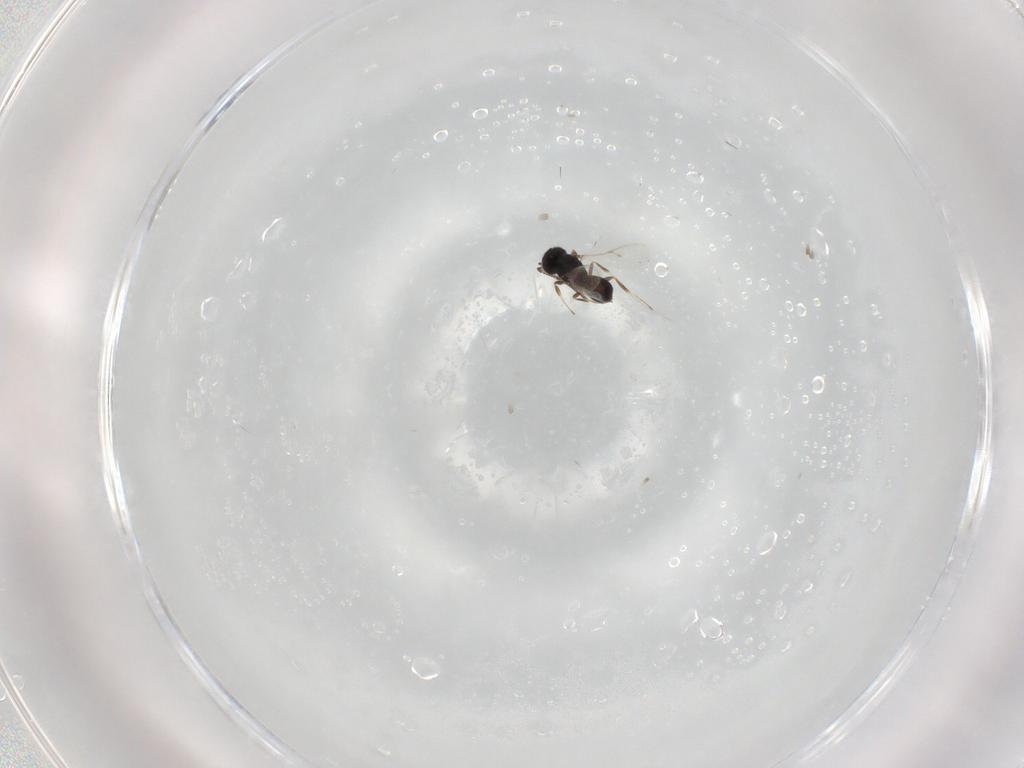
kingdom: Animalia
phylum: Arthropoda
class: Insecta
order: Hymenoptera
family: Scelionidae
